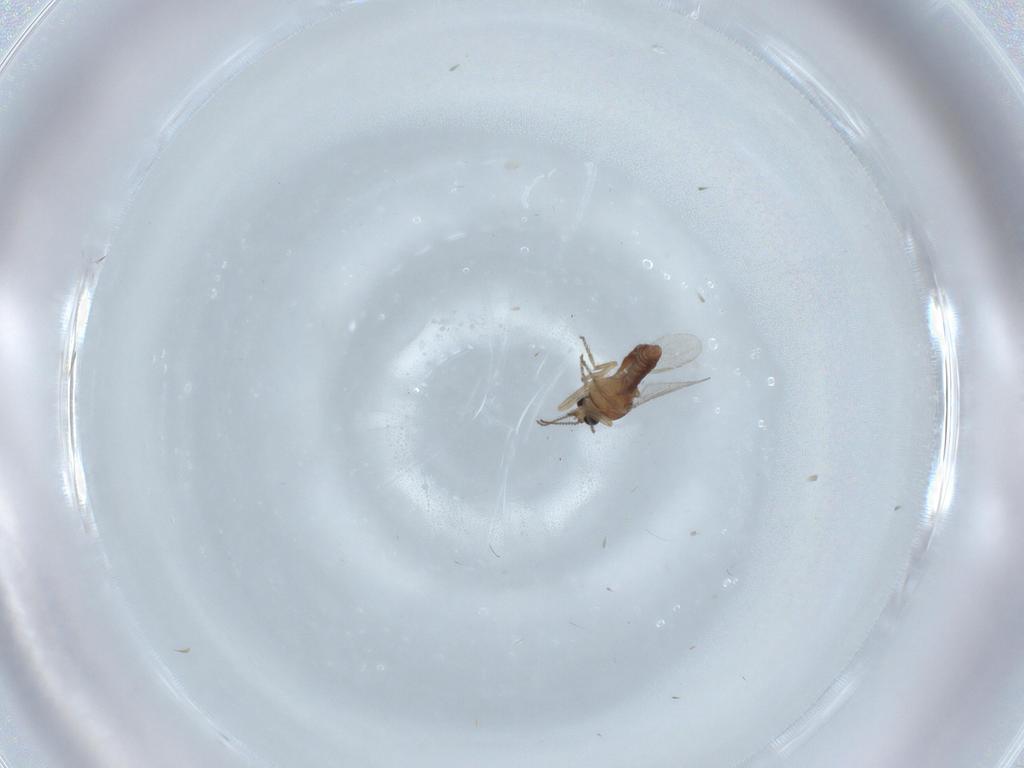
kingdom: Animalia
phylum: Arthropoda
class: Insecta
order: Diptera
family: Ceratopogonidae
